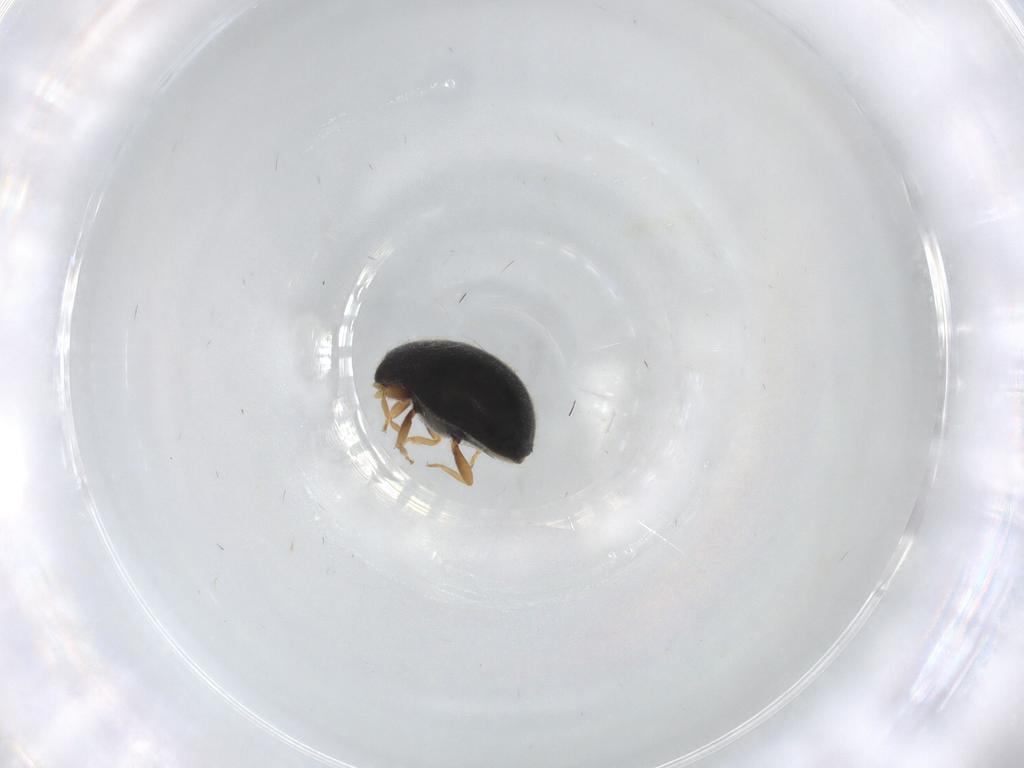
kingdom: Animalia
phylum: Arthropoda
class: Insecta
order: Coleoptera
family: Coccinellidae
